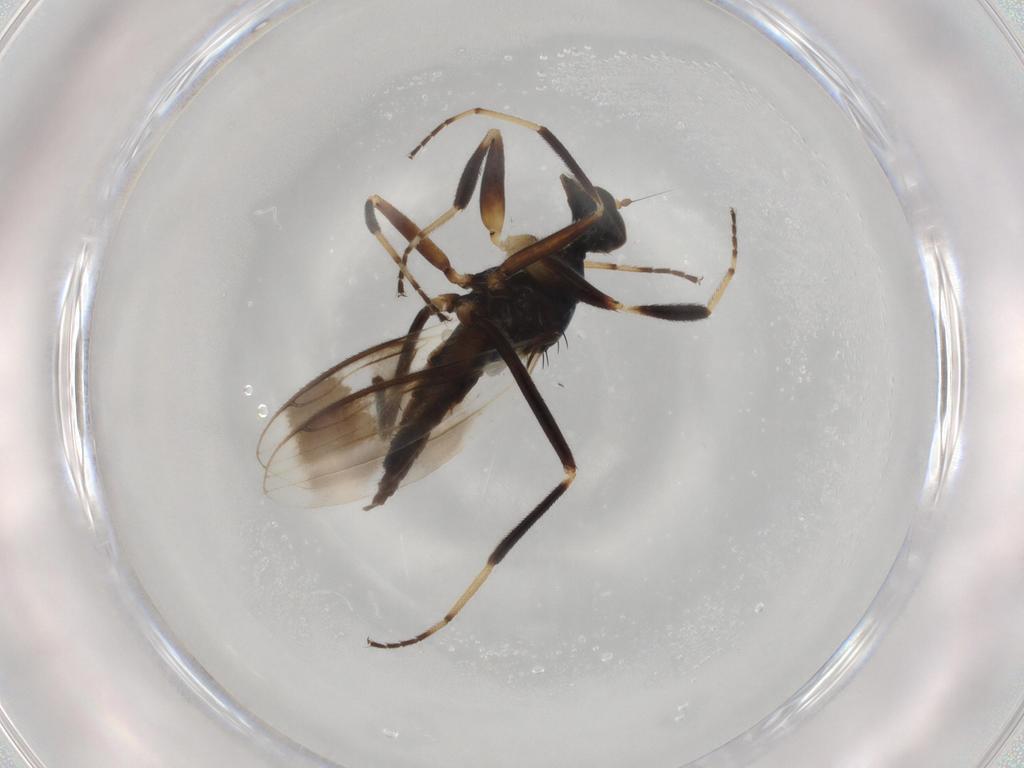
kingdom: Animalia
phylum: Arthropoda
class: Insecta
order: Diptera
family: Hybotidae
